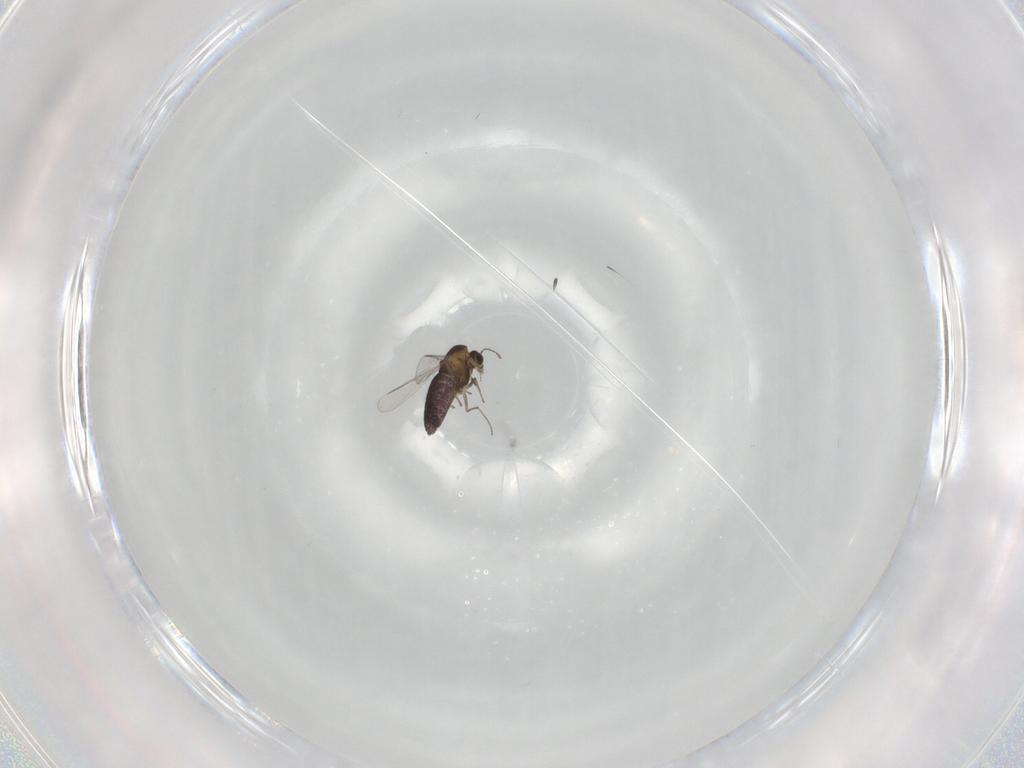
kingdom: Animalia
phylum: Arthropoda
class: Insecta
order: Diptera
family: Chironomidae
